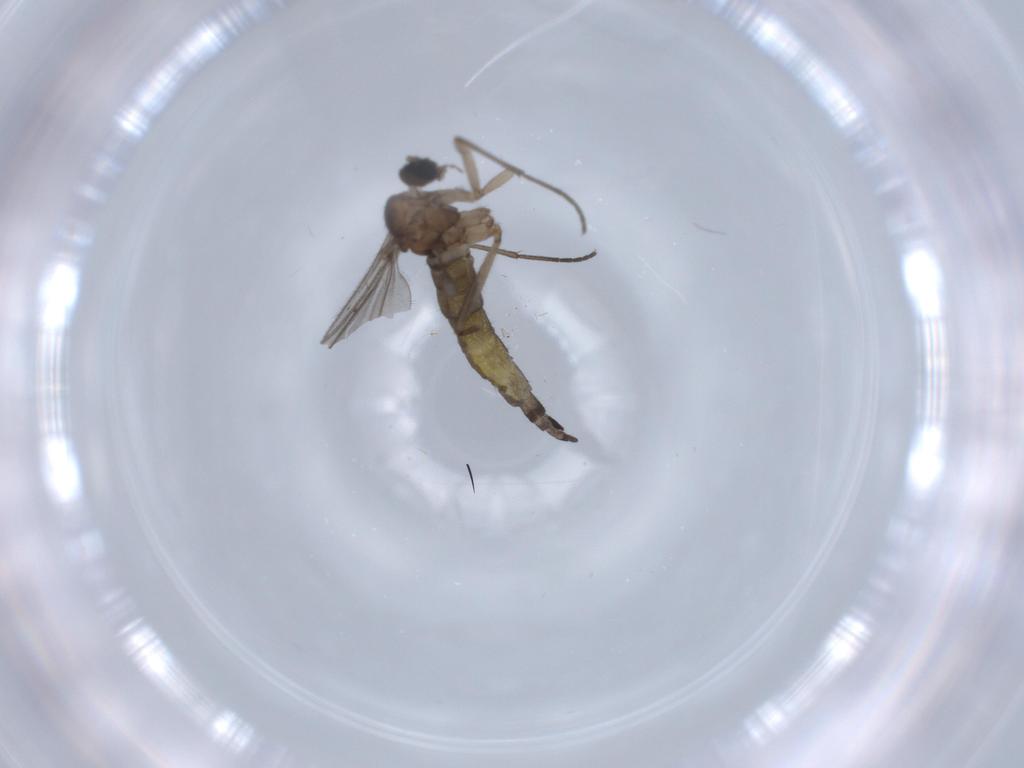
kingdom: Animalia
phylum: Arthropoda
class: Insecta
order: Diptera
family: Sciaridae
